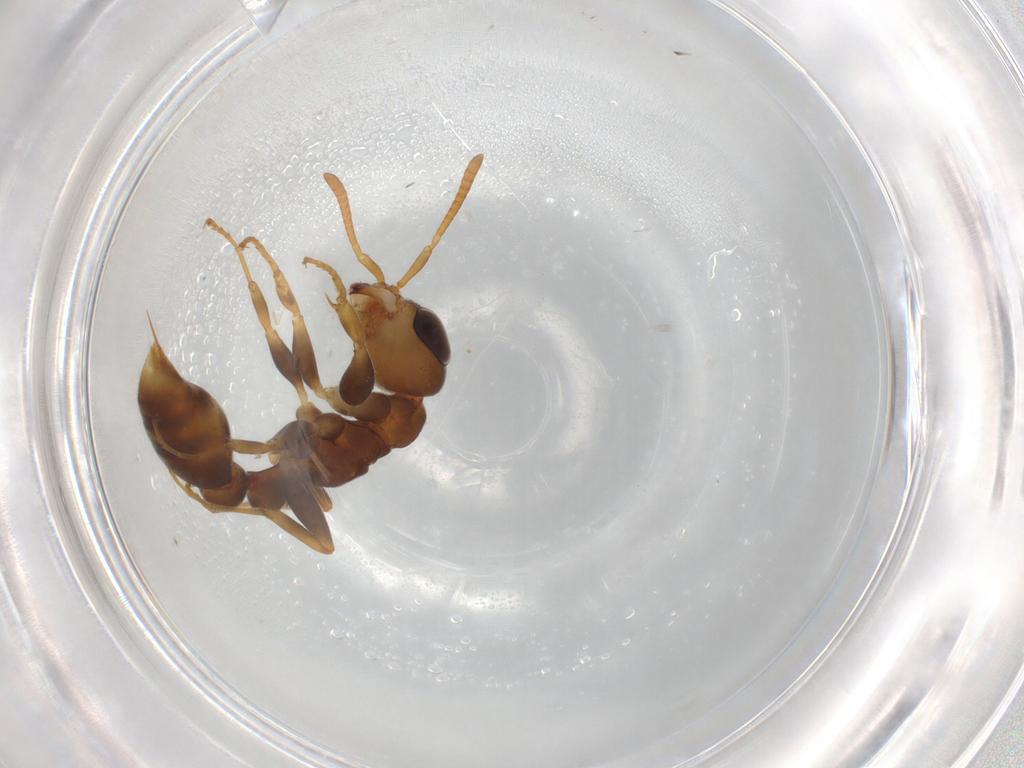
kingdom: Animalia
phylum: Arthropoda
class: Insecta
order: Hymenoptera
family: Formicidae
